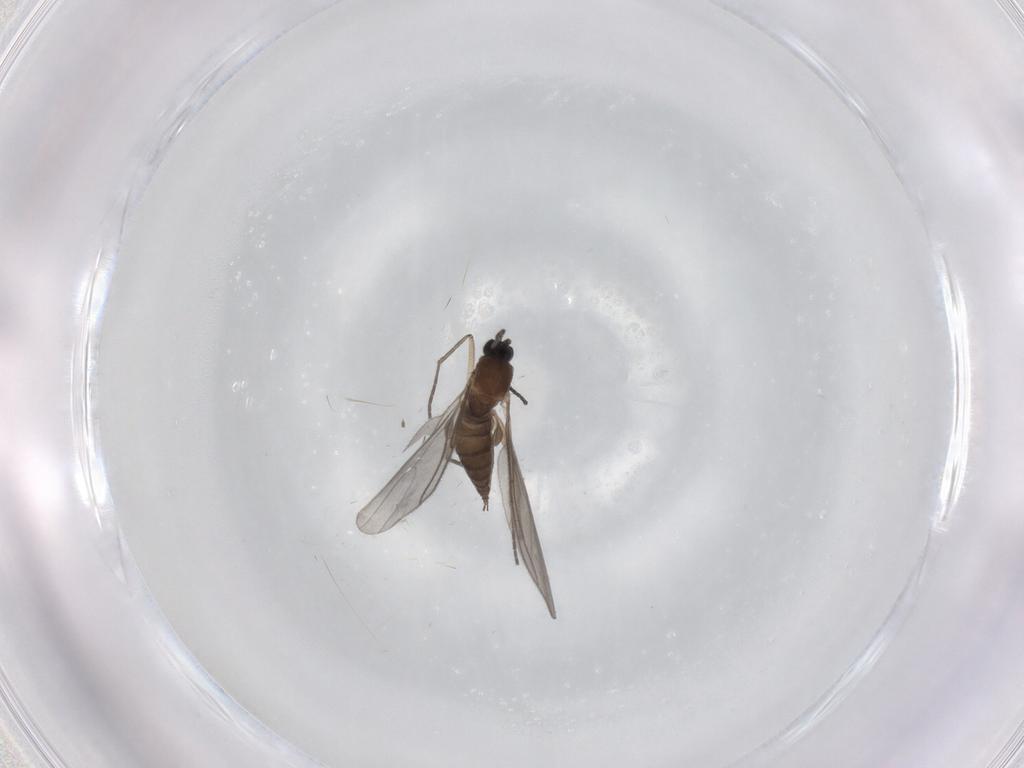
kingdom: Animalia
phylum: Arthropoda
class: Insecta
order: Diptera
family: Sciaridae
